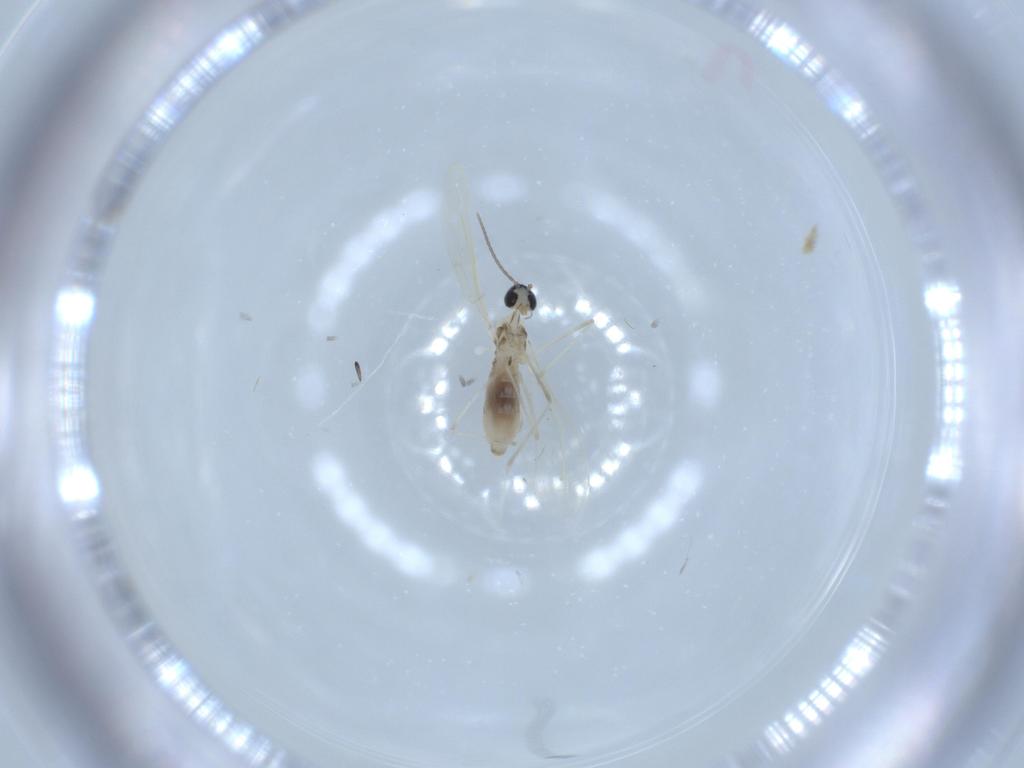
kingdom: Animalia
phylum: Arthropoda
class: Insecta
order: Diptera
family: Cecidomyiidae
